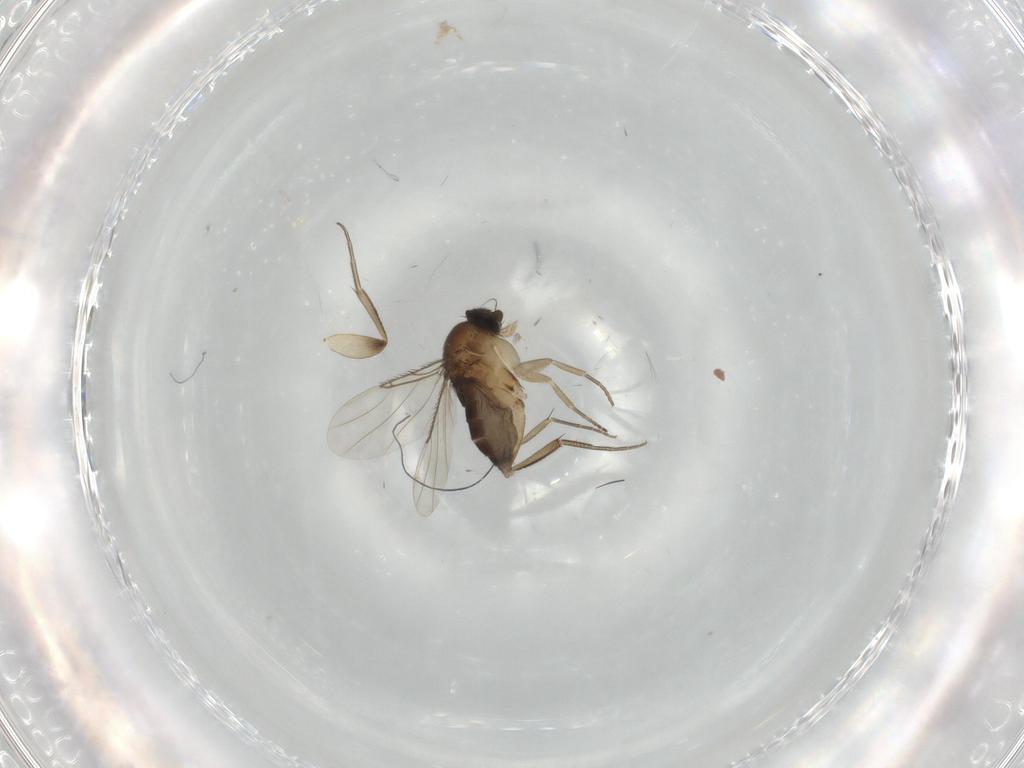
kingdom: Animalia
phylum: Arthropoda
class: Insecta
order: Diptera
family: Phoridae
